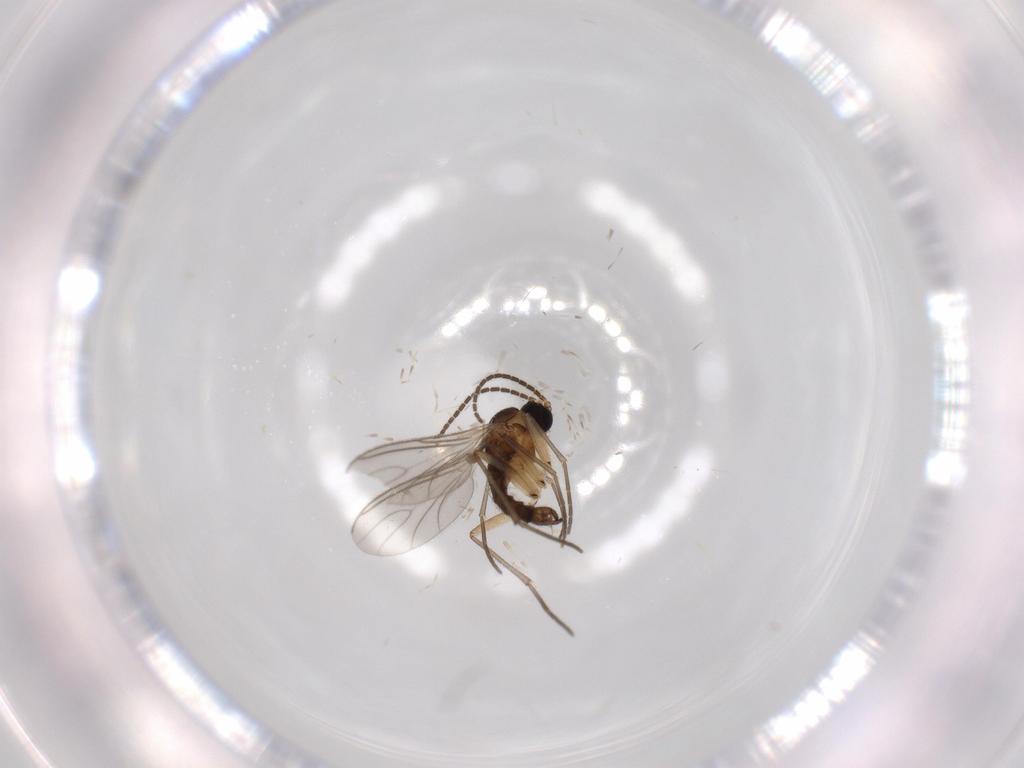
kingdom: Animalia
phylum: Arthropoda
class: Insecta
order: Diptera
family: Sciaridae
